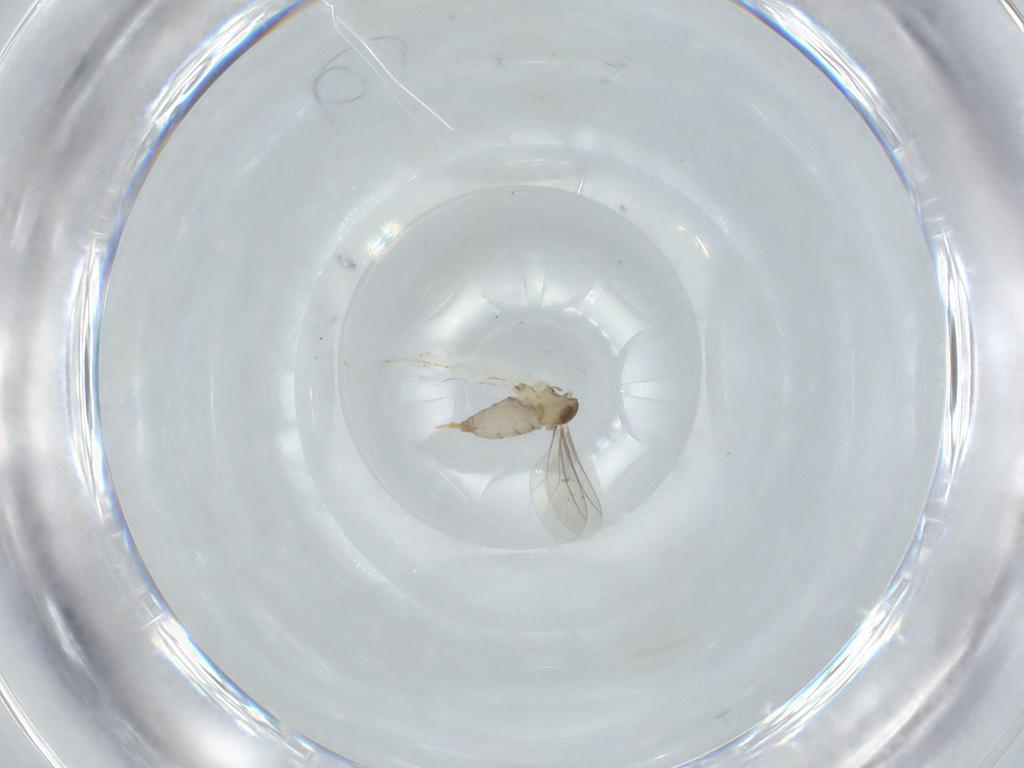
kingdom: Animalia
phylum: Arthropoda
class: Insecta
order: Diptera
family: Cecidomyiidae
